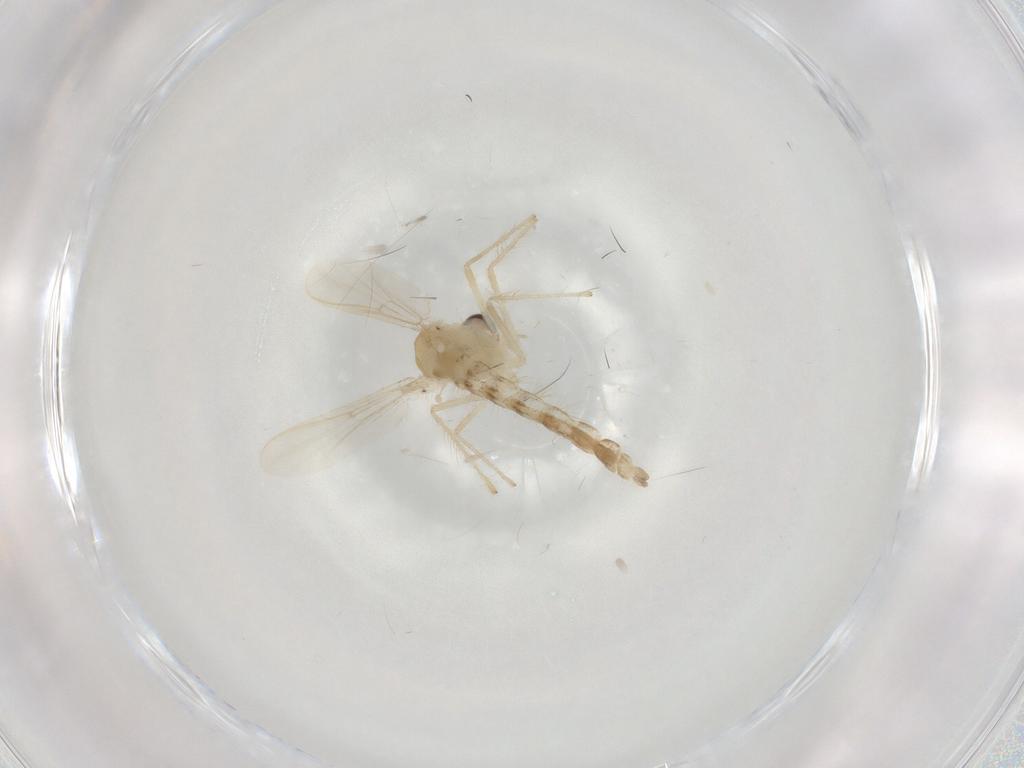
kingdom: Animalia
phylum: Arthropoda
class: Insecta
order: Diptera
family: Chironomidae
